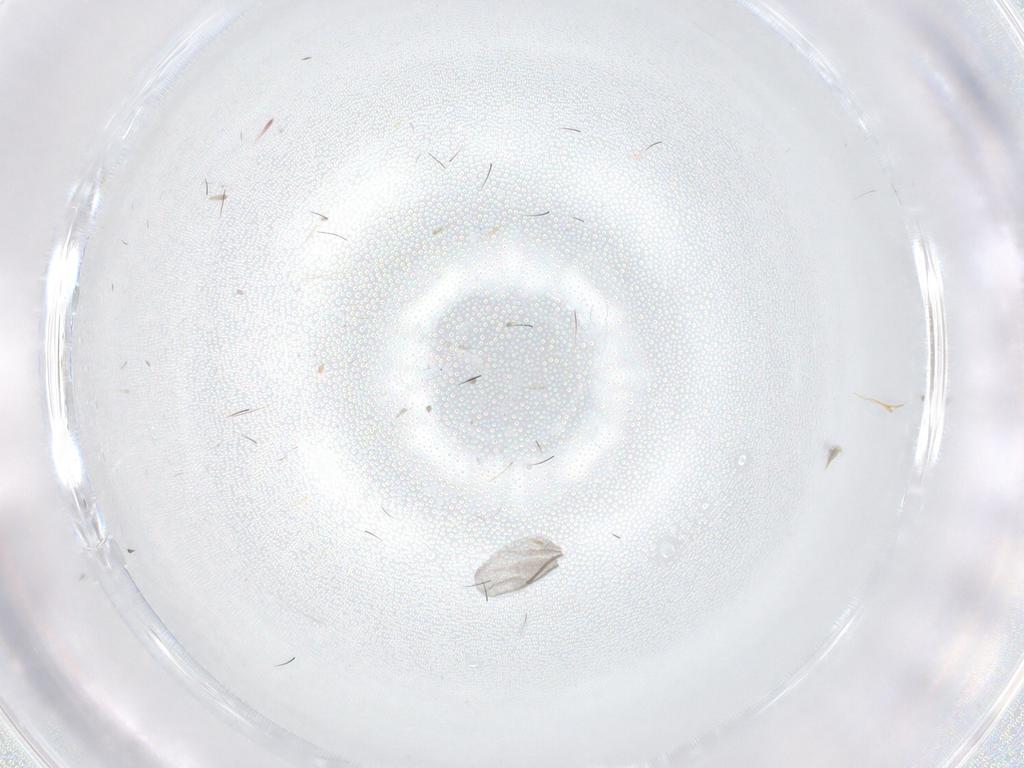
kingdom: Animalia
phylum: Arthropoda
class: Insecta
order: Diptera
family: Cecidomyiidae
